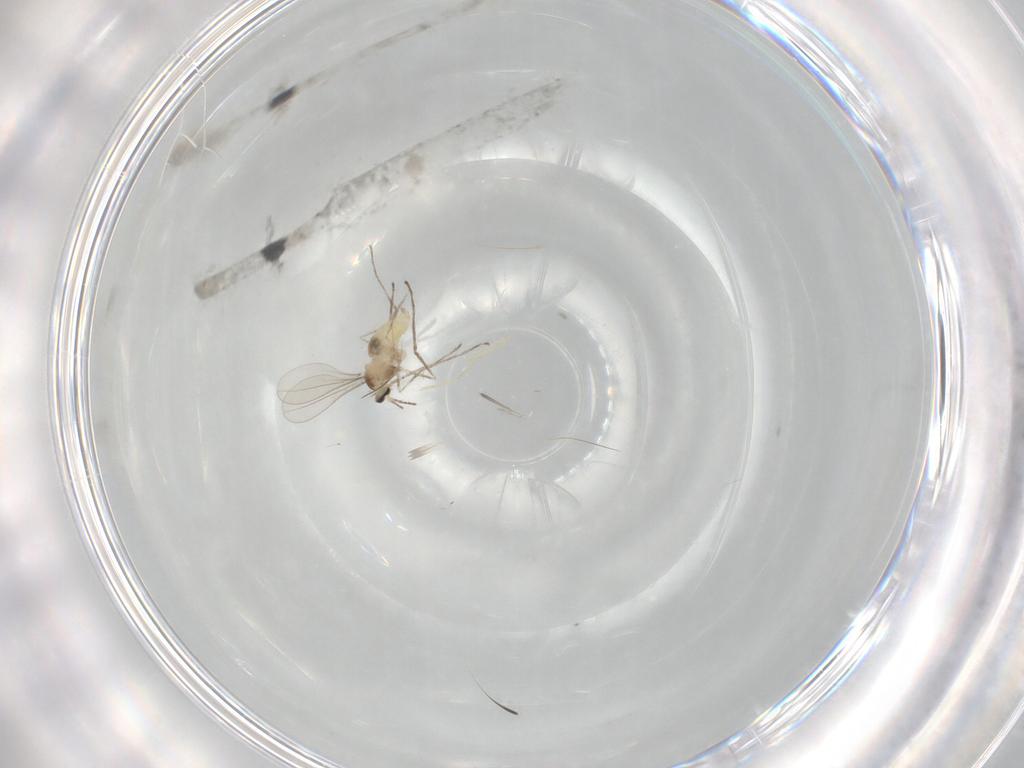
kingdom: Animalia
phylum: Arthropoda
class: Insecta
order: Diptera
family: Cecidomyiidae
